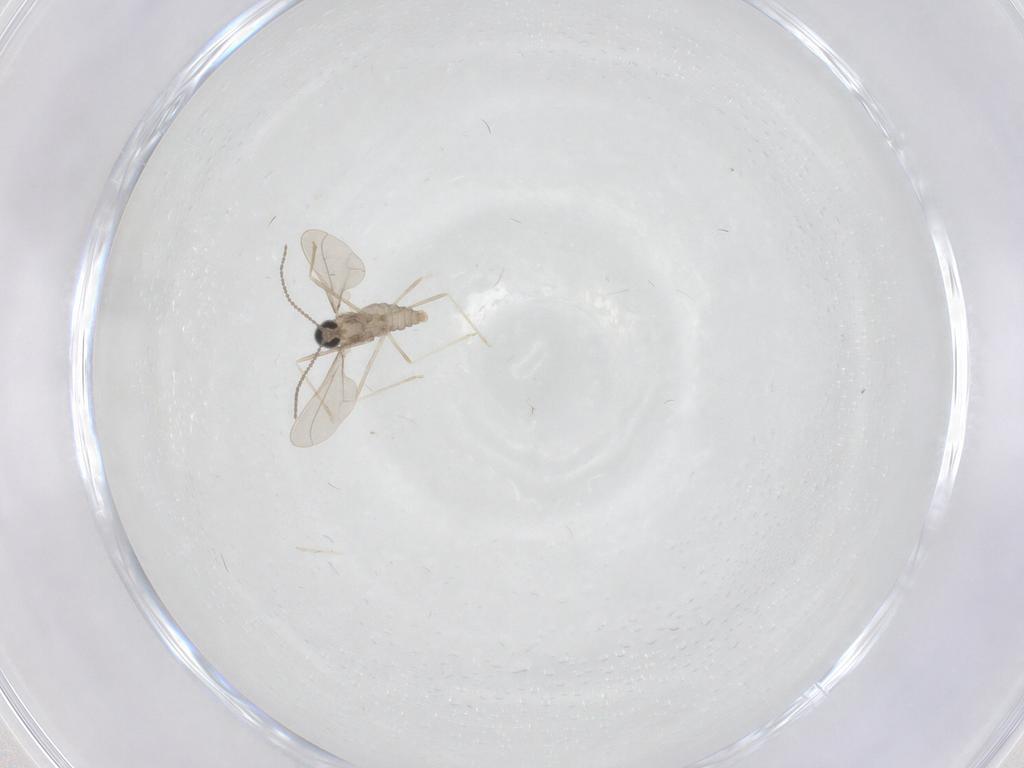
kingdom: Animalia
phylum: Arthropoda
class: Insecta
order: Diptera
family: Cecidomyiidae
